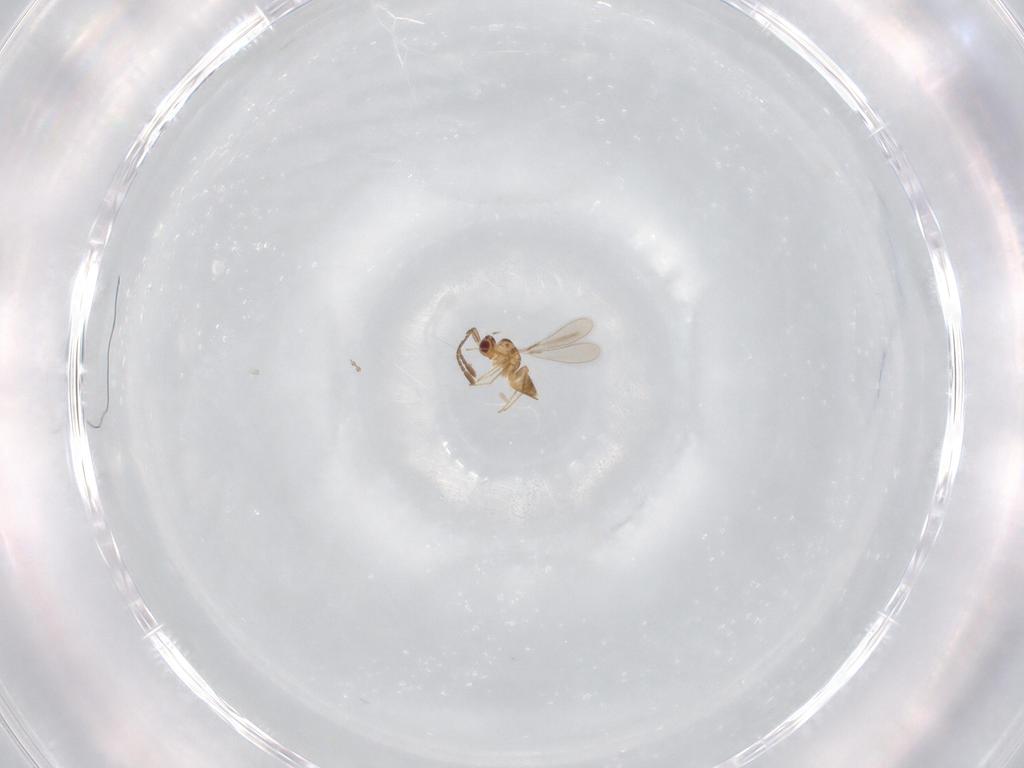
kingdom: Animalia
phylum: Arthropoda
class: Insecta
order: Hymenoptera
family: Mymaridae
